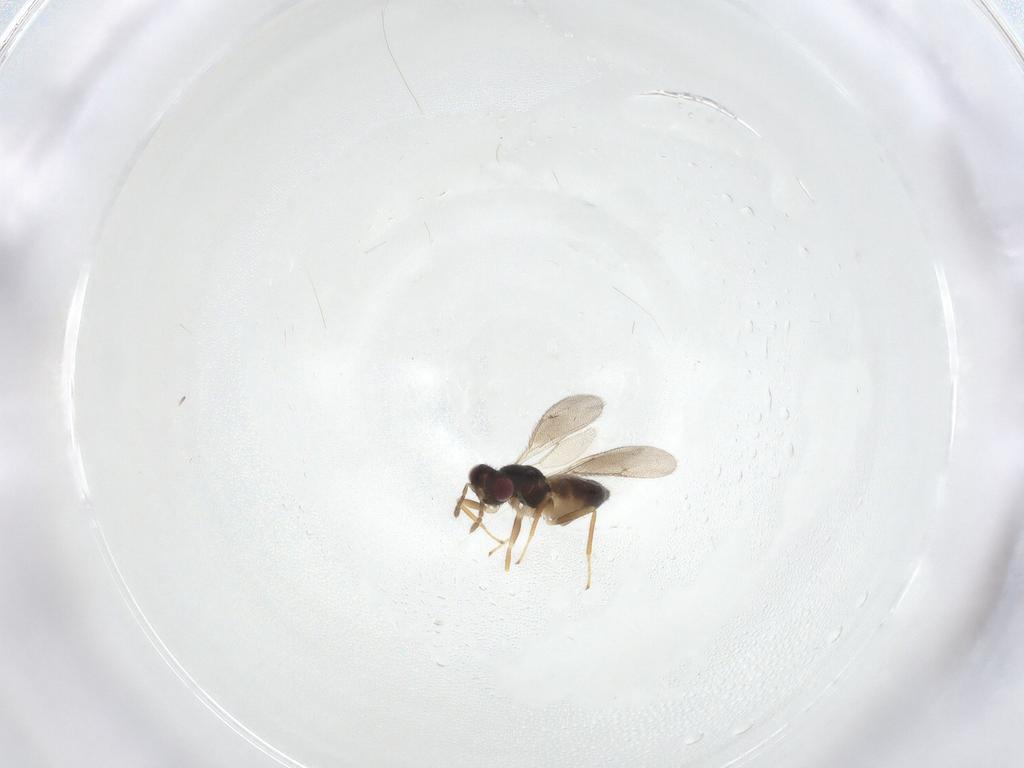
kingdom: Animalia
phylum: Arthropoda
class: Insecta
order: Hymenoptera
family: Eulophidae
